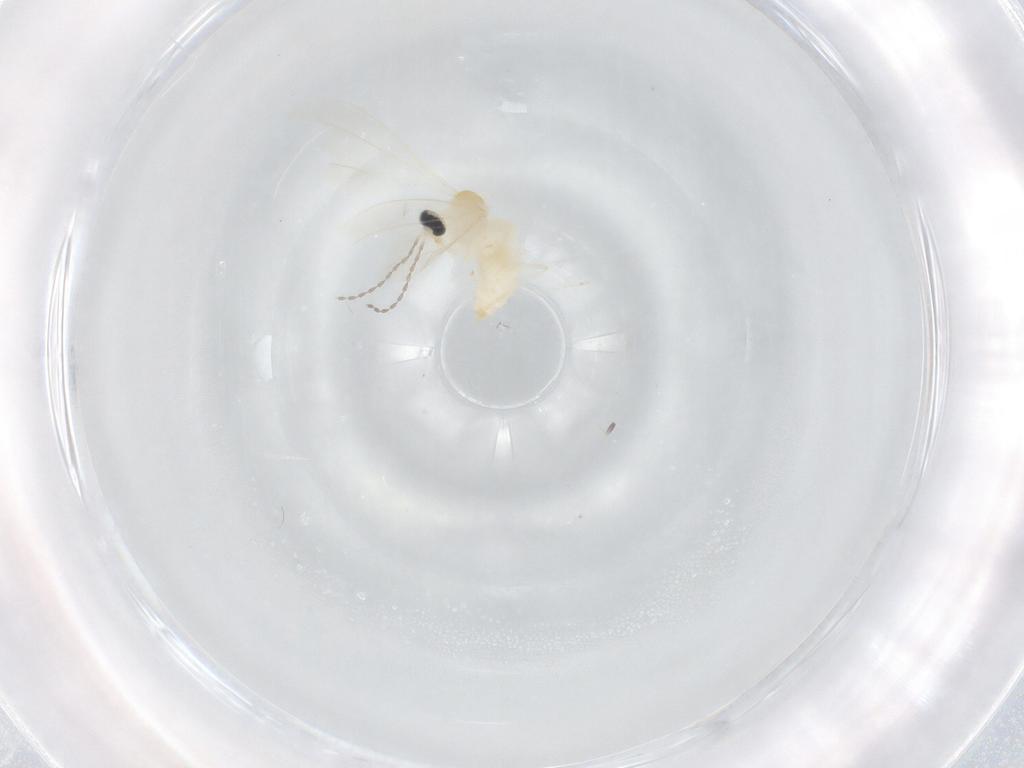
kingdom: Animalia
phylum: Arthropoda
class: Insecta
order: Diptera
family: Cecidomyiidae
